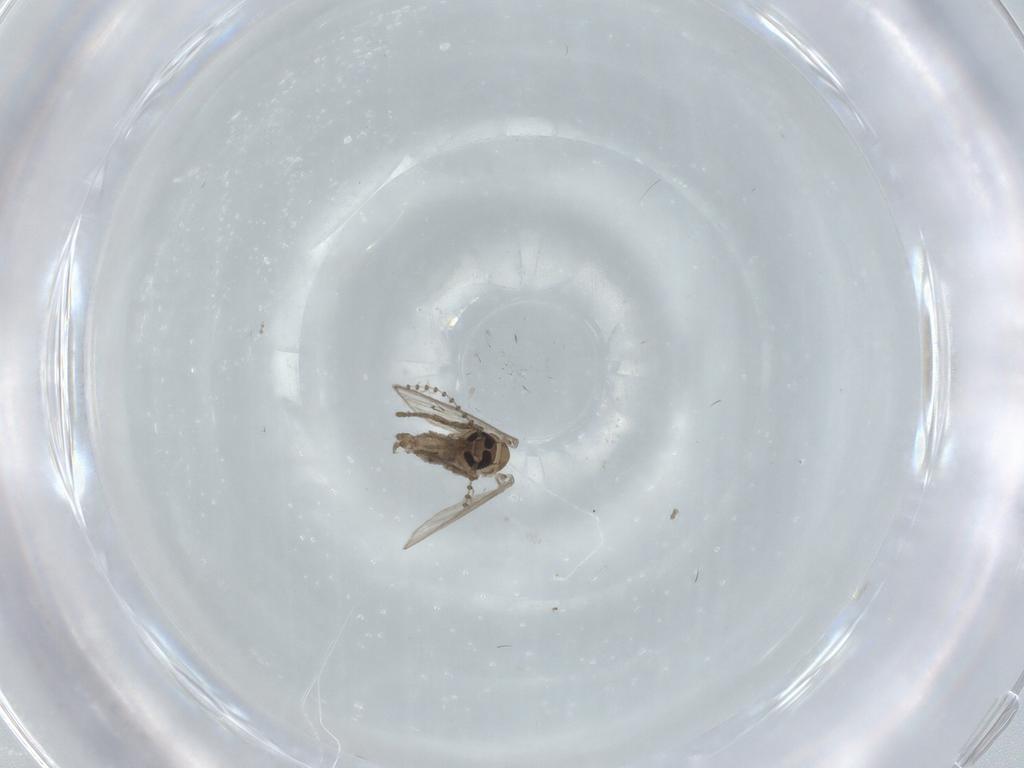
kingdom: Animalia
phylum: Arthropoda
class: Insecta
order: Diptera
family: Psychodidae
